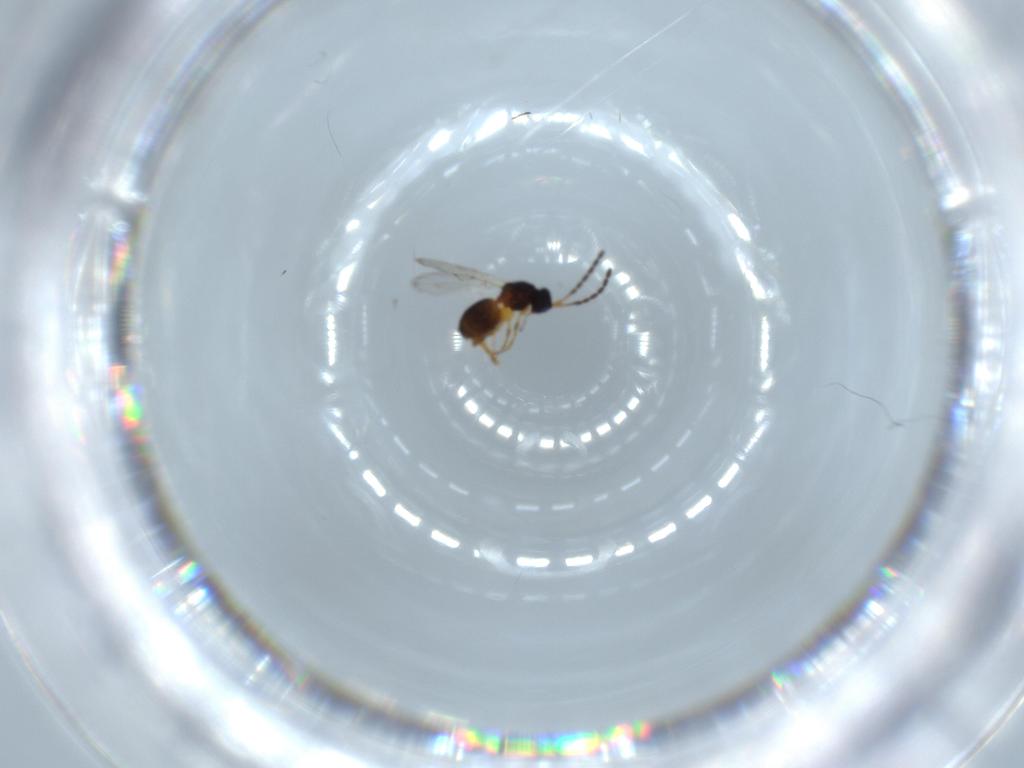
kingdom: Animalia
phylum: Arthropoda
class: Insecta
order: Hymenoptera
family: Figitidae
